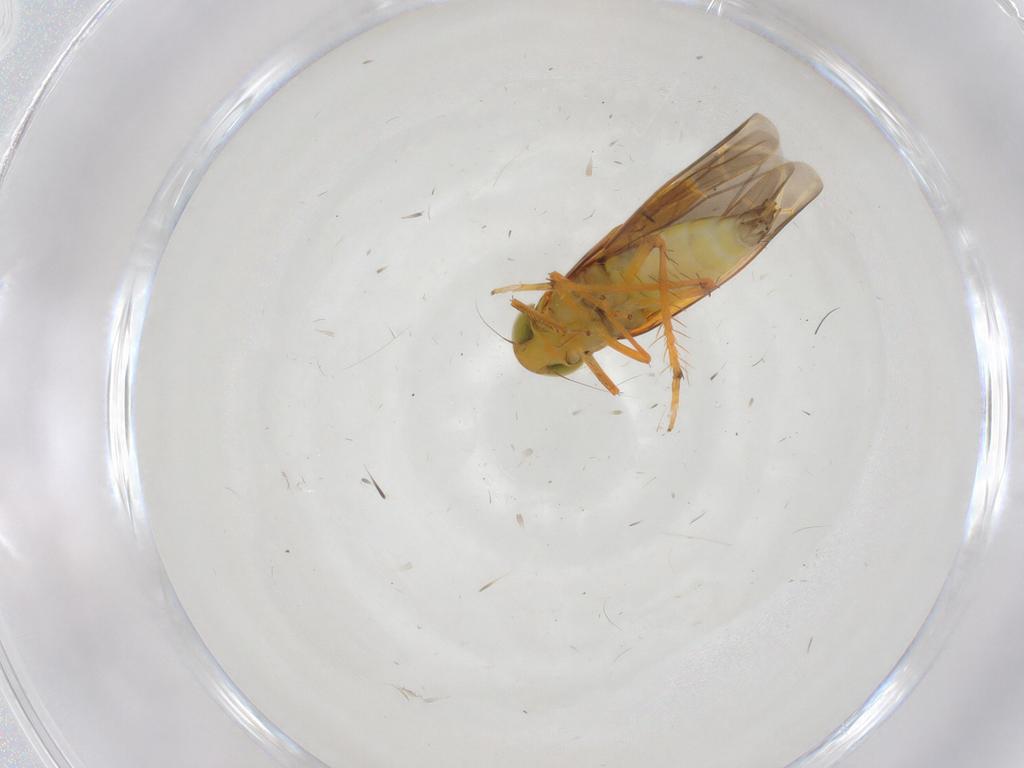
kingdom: Animalia
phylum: Arthropoda
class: Insecta
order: Hemiptera
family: Cicadellidae
